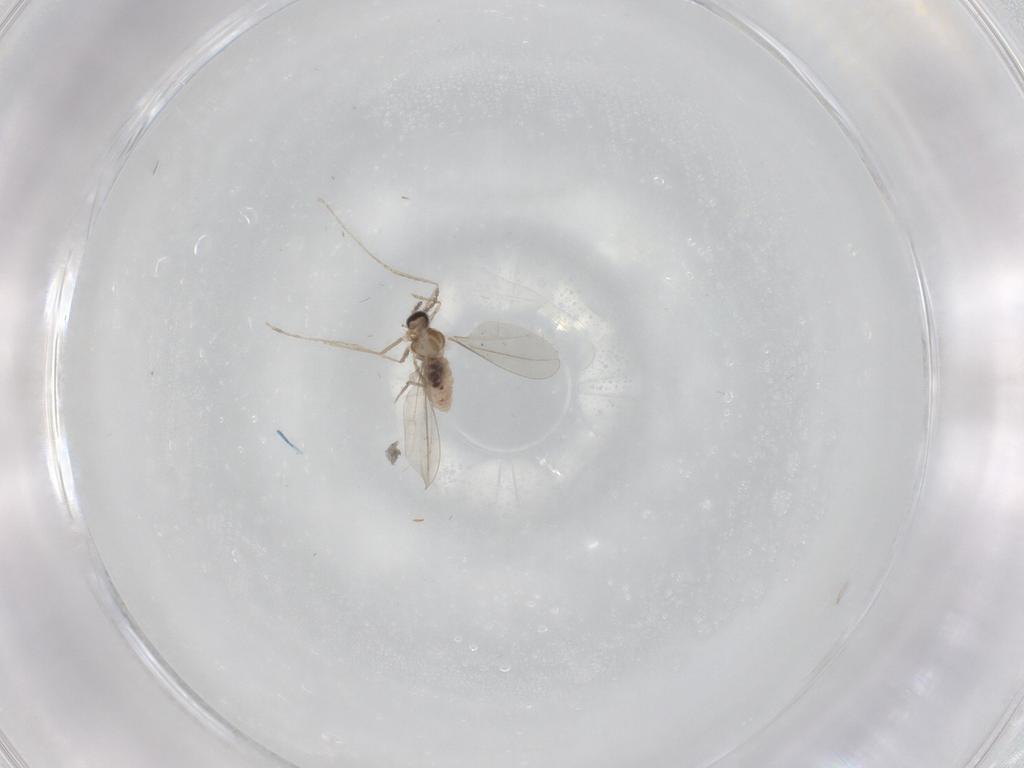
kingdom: Animalia
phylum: Arthropoda
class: Insecta
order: Diptera
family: Cecidomyiidae
